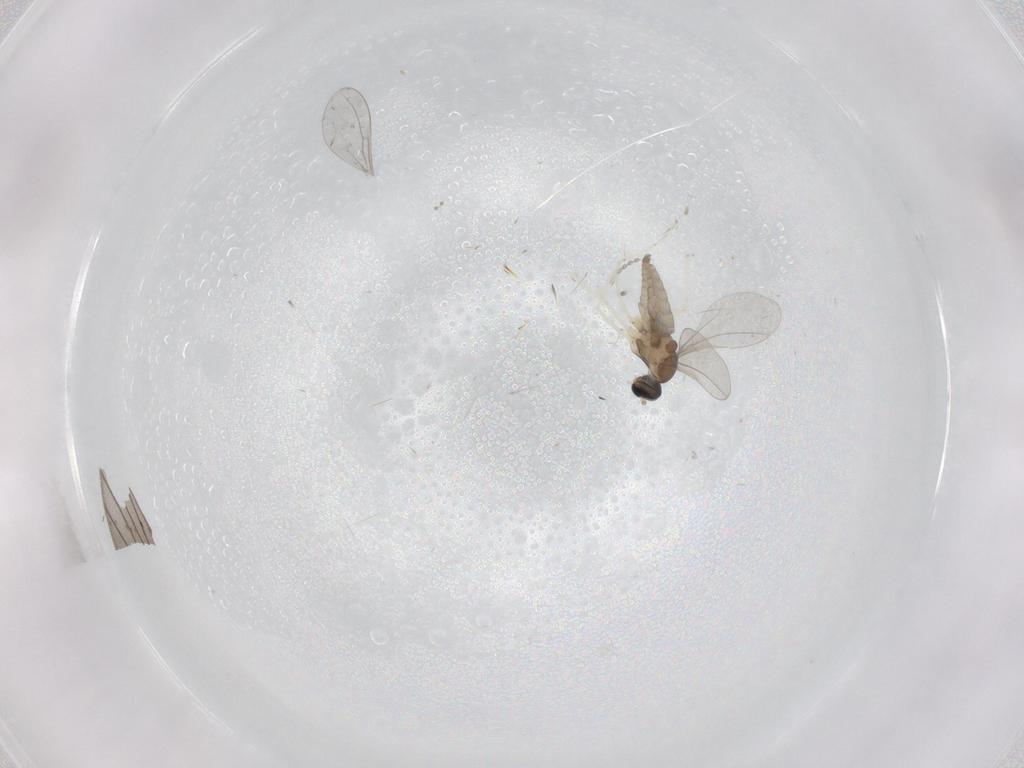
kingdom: Animalia
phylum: Arthropoda
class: Insecta
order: Diptera
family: Cecidomyiidae
